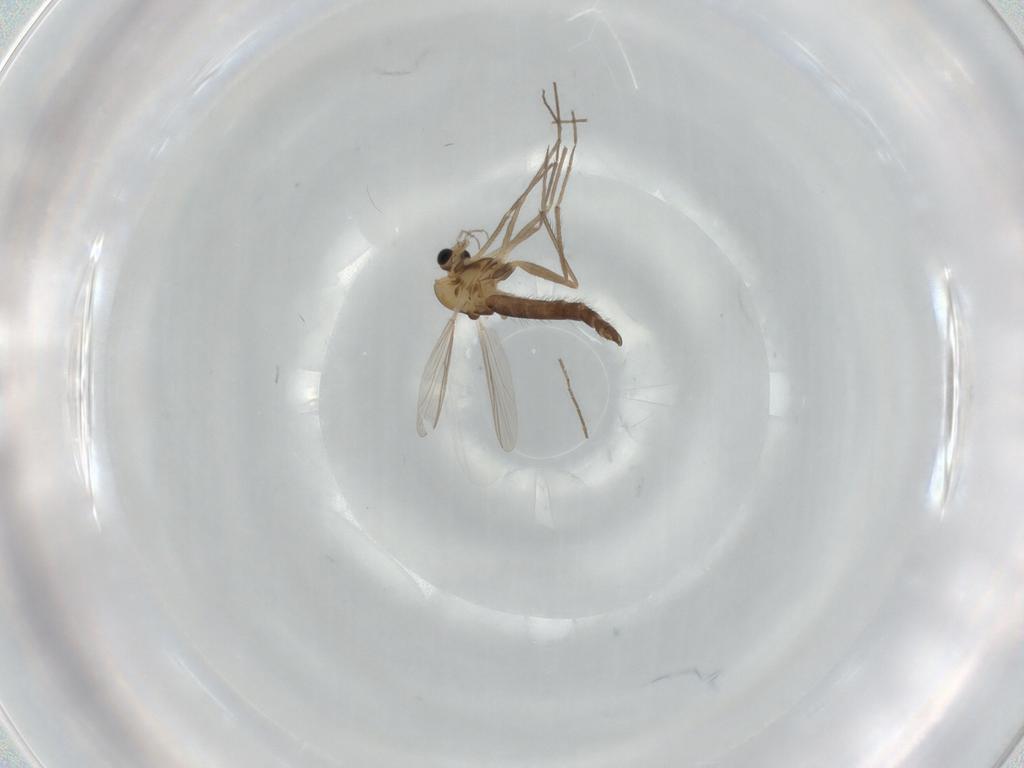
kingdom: Animalia
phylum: Arthropoda
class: Insecta
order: Diptera
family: Chironomidae
